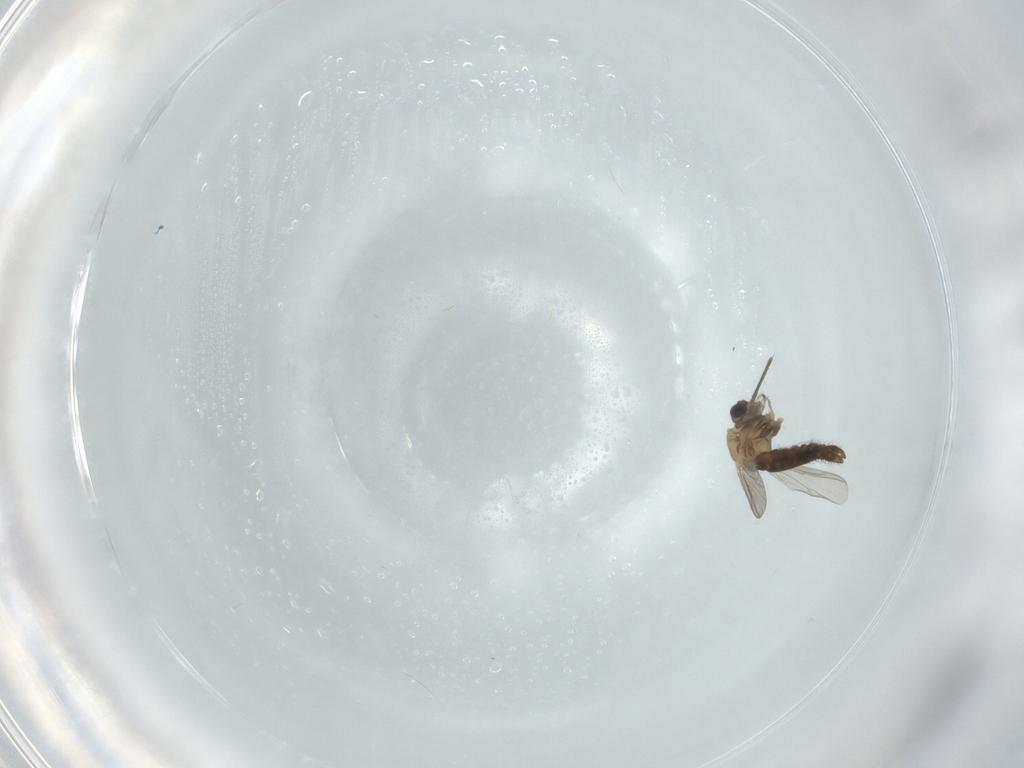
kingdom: Animalia
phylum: Arthropoda
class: Insecta
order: Diptera
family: Chironomidae
